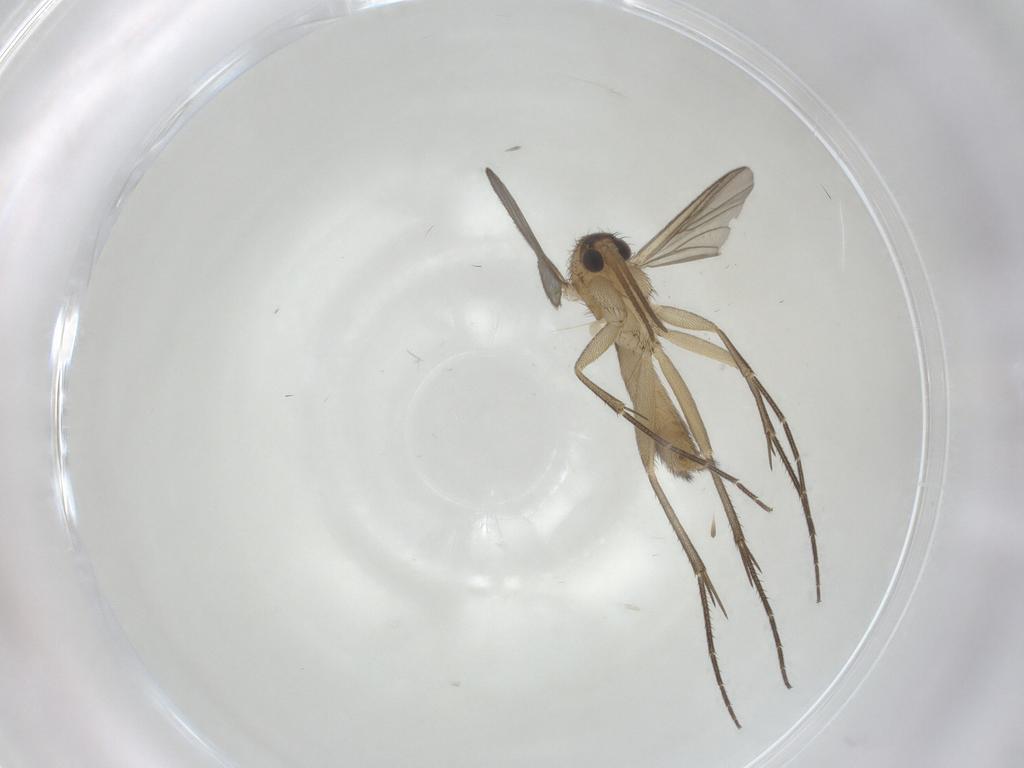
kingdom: Animalia
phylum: Arthropoda
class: Insecta
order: Diptera
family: Mycetophilidae
